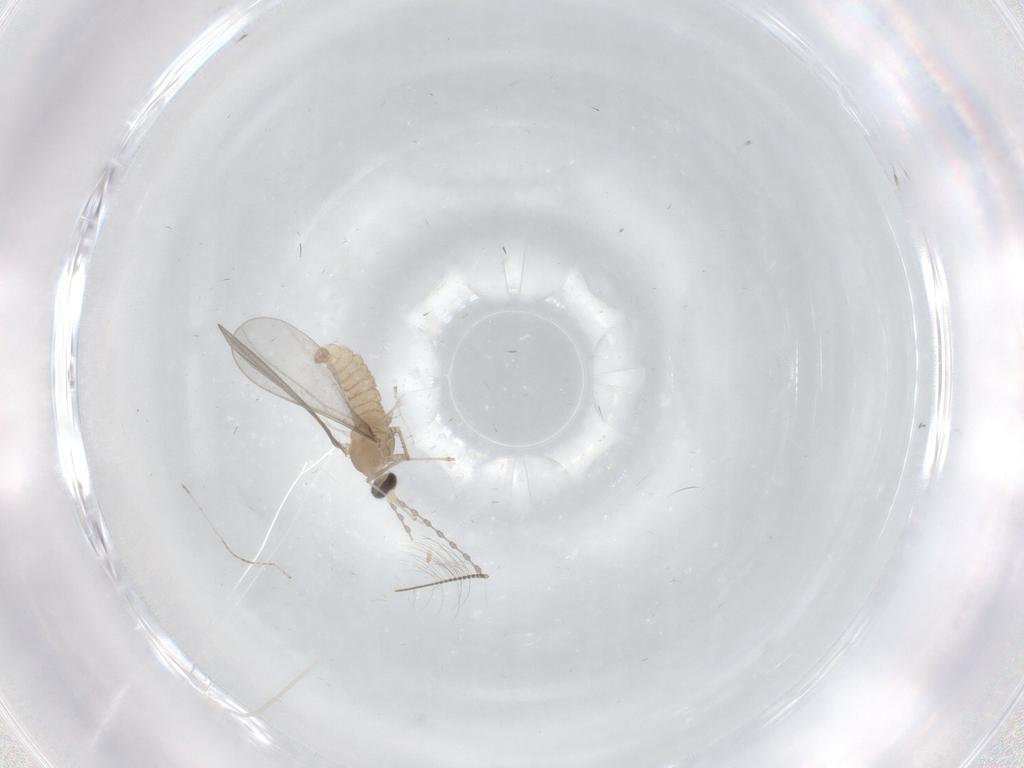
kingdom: Animalia
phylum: Arthropoda
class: Insecta
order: Diptera
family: Cecidomyiidae
